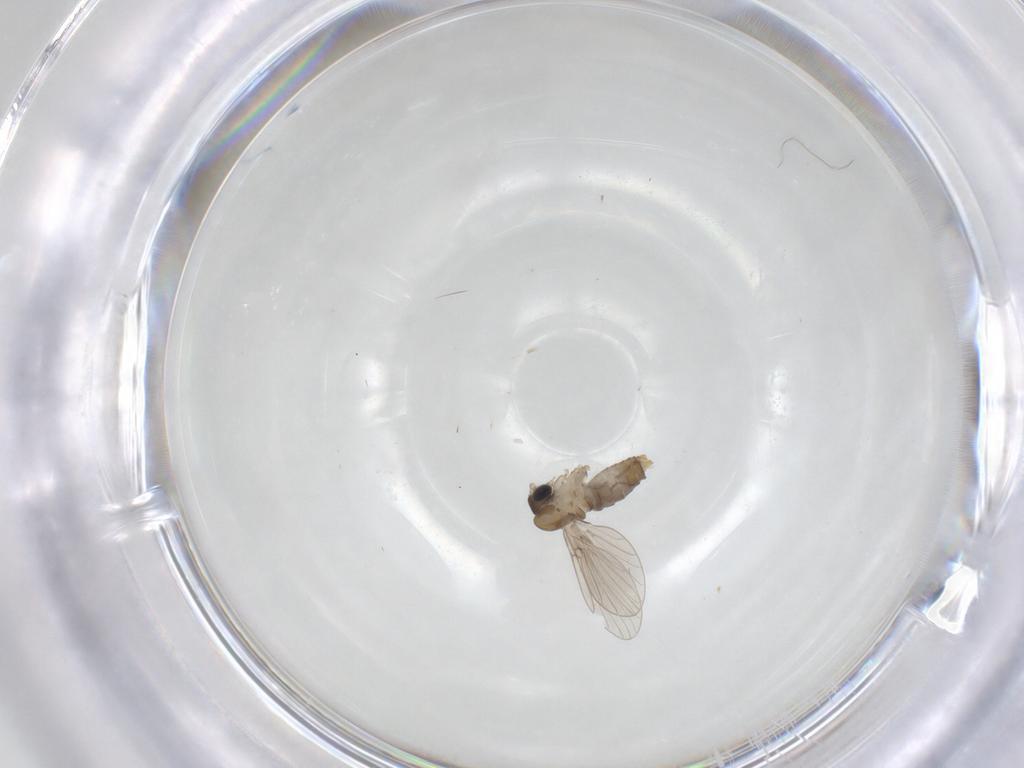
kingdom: Animalia
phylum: Arthropoda
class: Insecta
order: Diptera
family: Psychodidae
